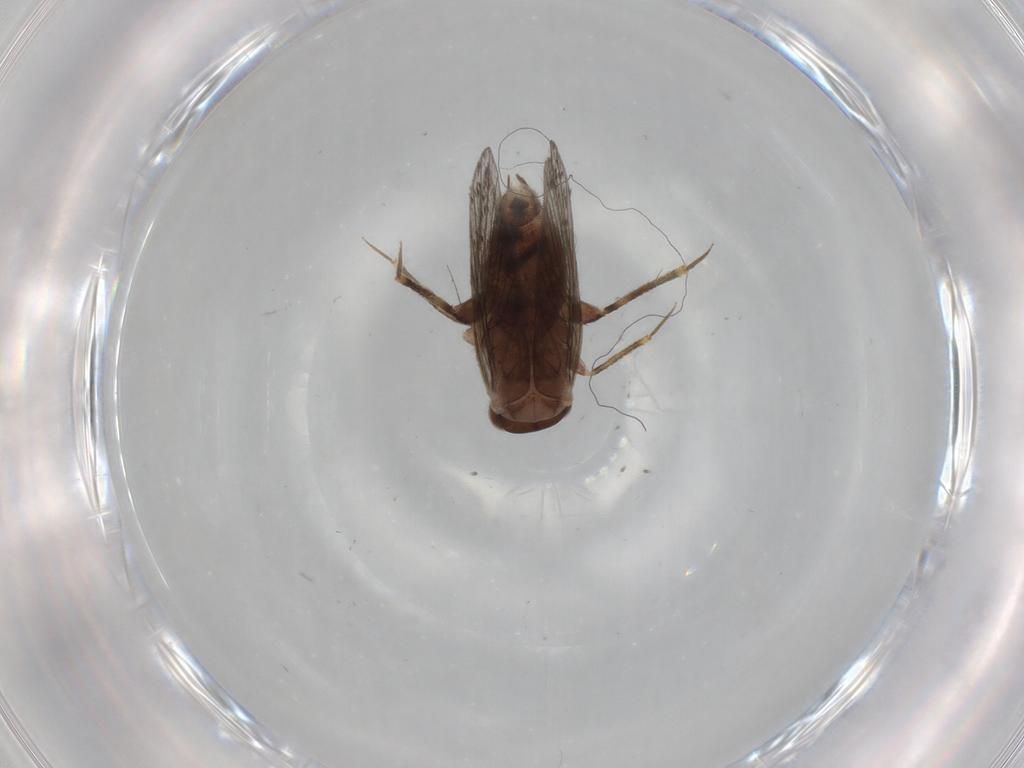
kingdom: Animalia
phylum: Arthropoda
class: Insecta
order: Psocodea
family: Lepidopsocidae
